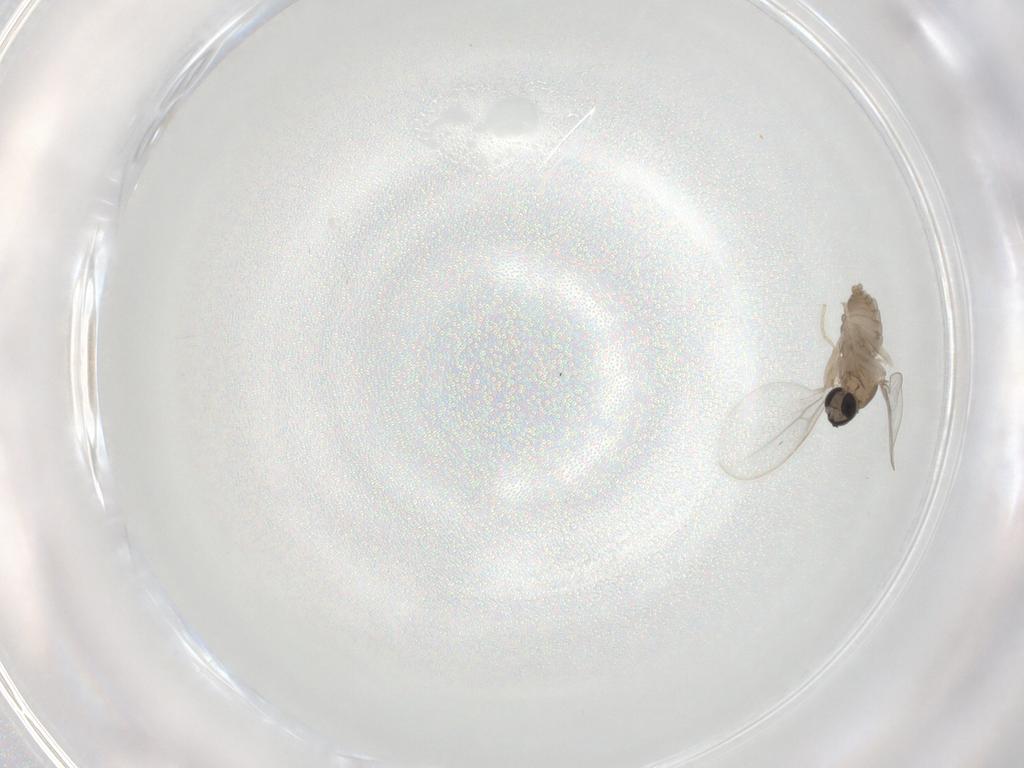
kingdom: Animalia
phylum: Arthropoda
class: Insecta
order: Diptera
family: Cecidomyiidae
